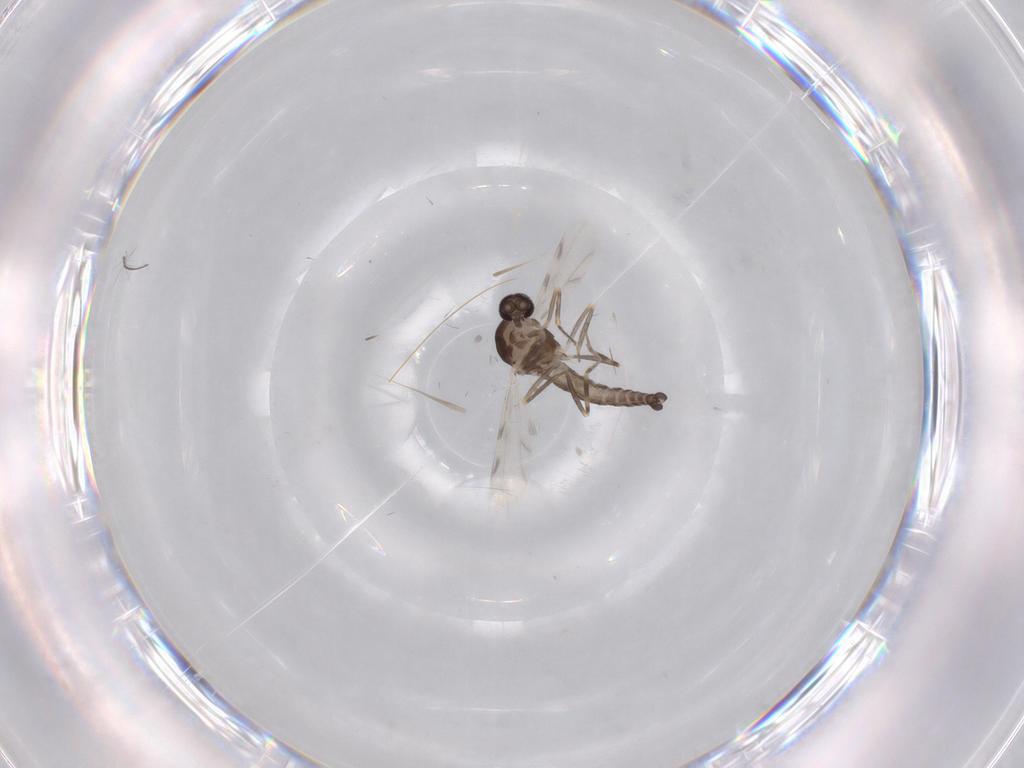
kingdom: Animalia
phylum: Arthropoda
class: Insecta
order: Diptera
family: Ceratopogonidae
